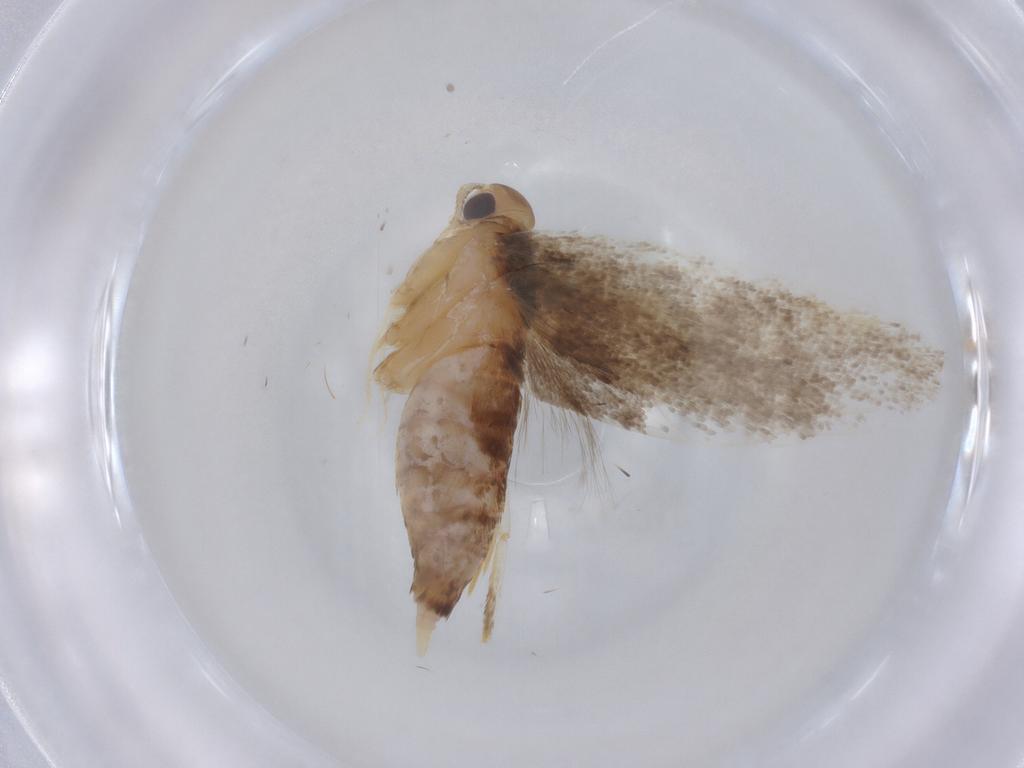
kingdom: Animalia
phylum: Arthropoda
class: Insecta
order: Lepidoptera
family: Lecithoceridae
